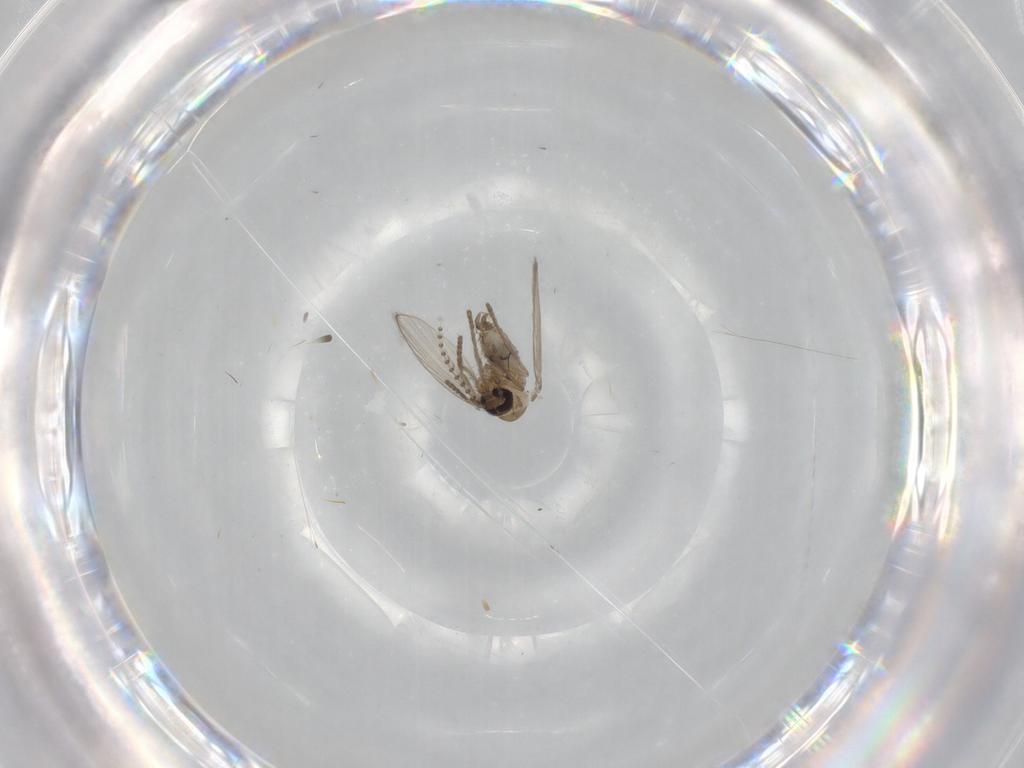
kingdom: Animalia
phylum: Arthropoda
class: Insecta
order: Diptera
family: Psychodidae
